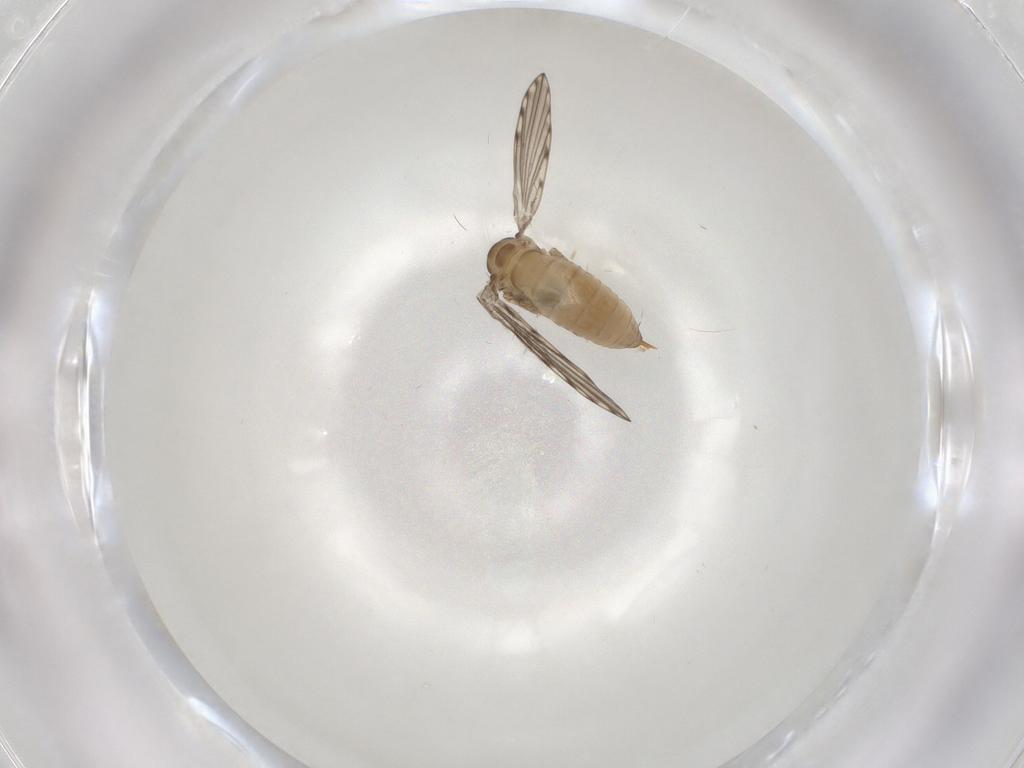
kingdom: Animalia
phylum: Arthropoda
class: Insecta
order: Diptera
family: Psychodidae
